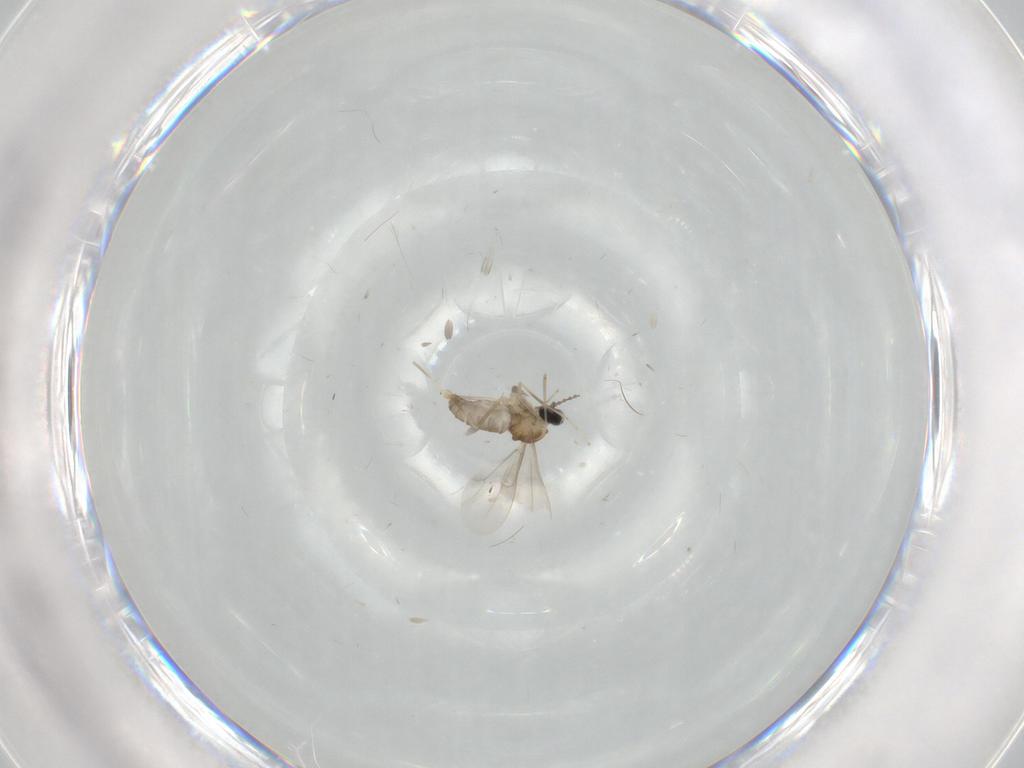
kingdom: Animalia
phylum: Arthropoda
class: Insecta
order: Diptera
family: Cecidomyiidae
